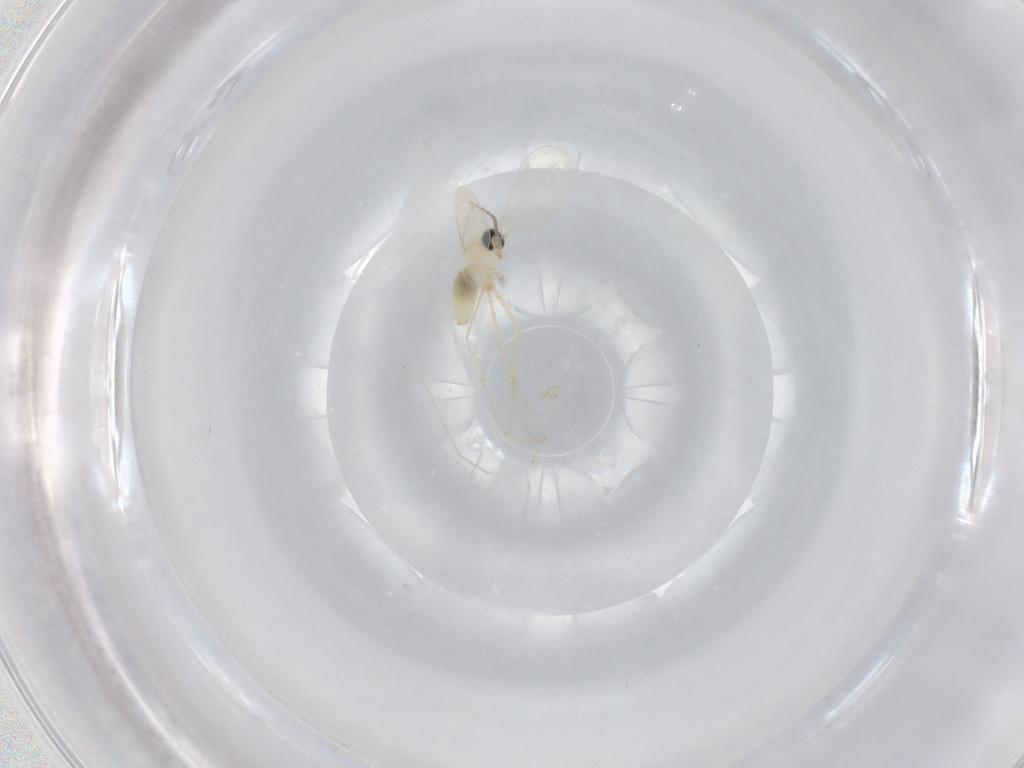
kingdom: Animalia
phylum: Arthropoda
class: Insecta
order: Diptera
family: Cecidomyiidae
